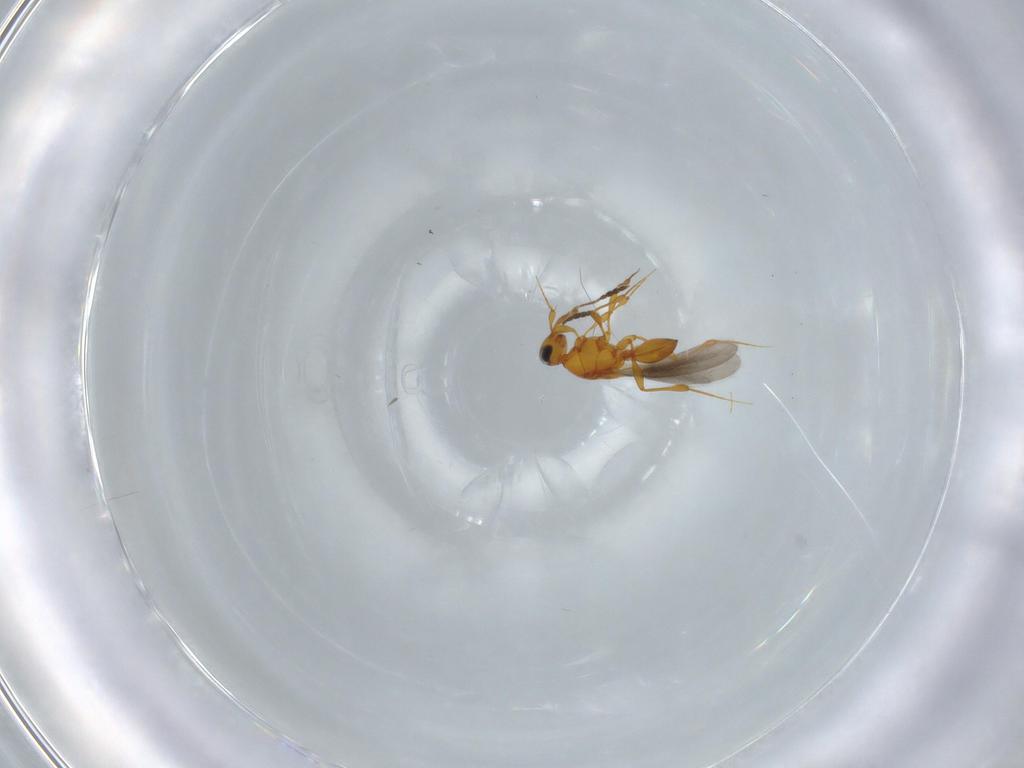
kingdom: Animalia
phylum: Arthropoda
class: Insecta
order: Hymenoptera
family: Platygastridae
